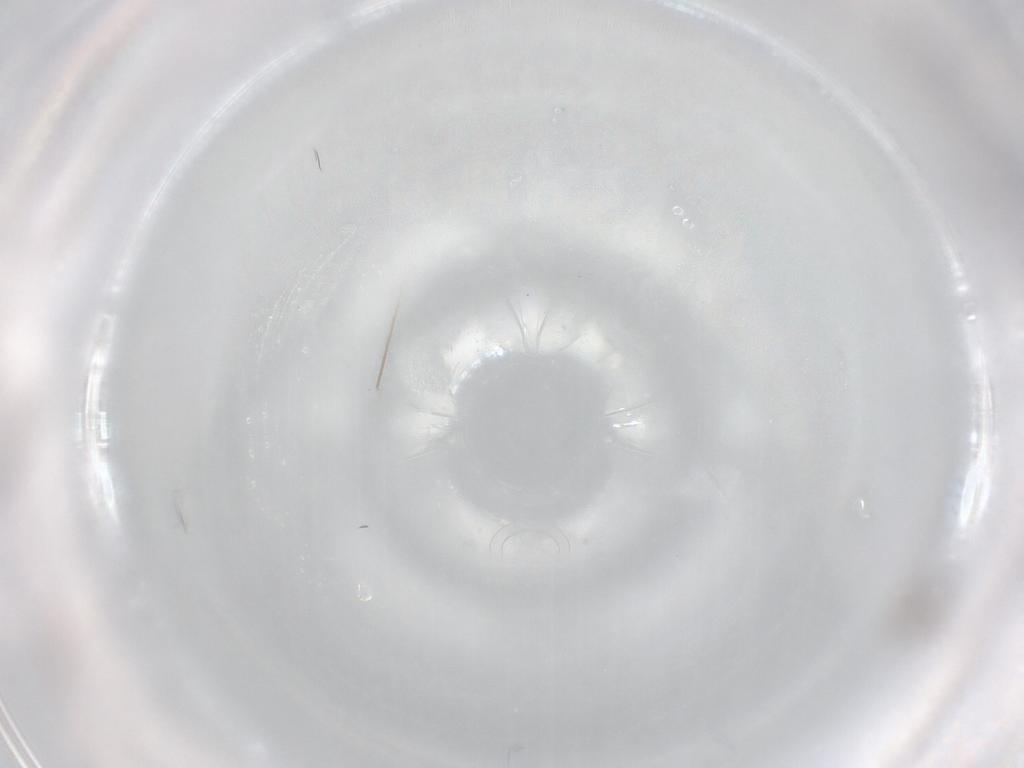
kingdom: Animalia
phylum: Arthropoda
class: Insecta
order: Diptera
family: Chironomidae
